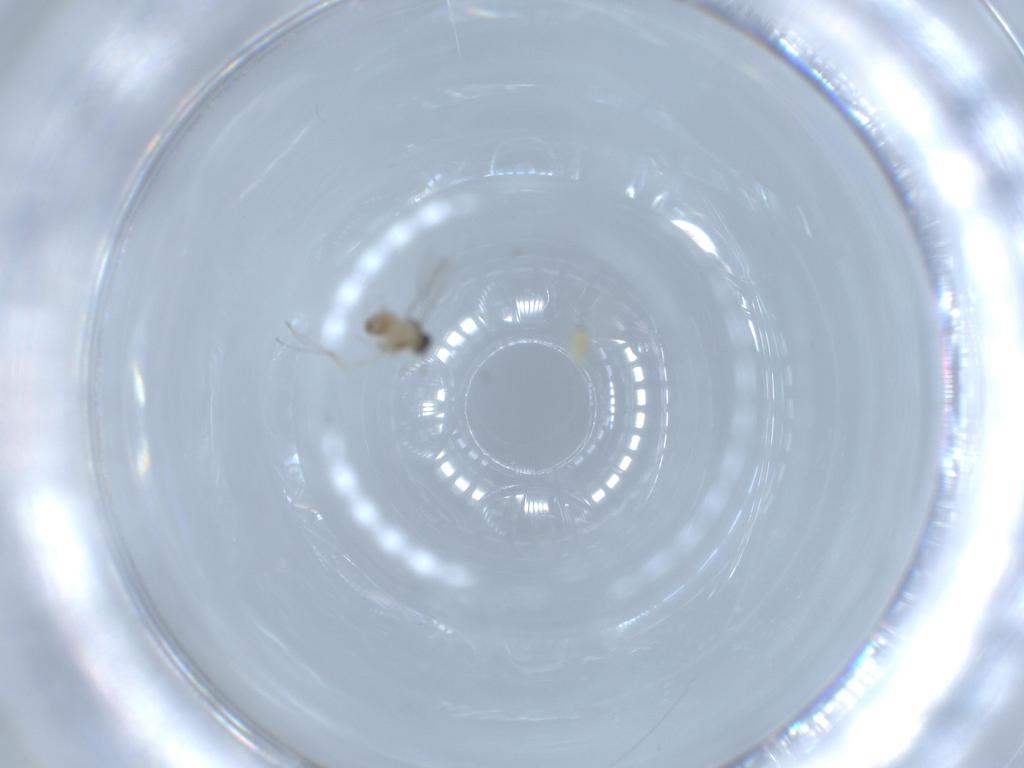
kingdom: Animalia
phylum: Arthropoda
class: Insecta
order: Diptera
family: Cecidomyiidae
